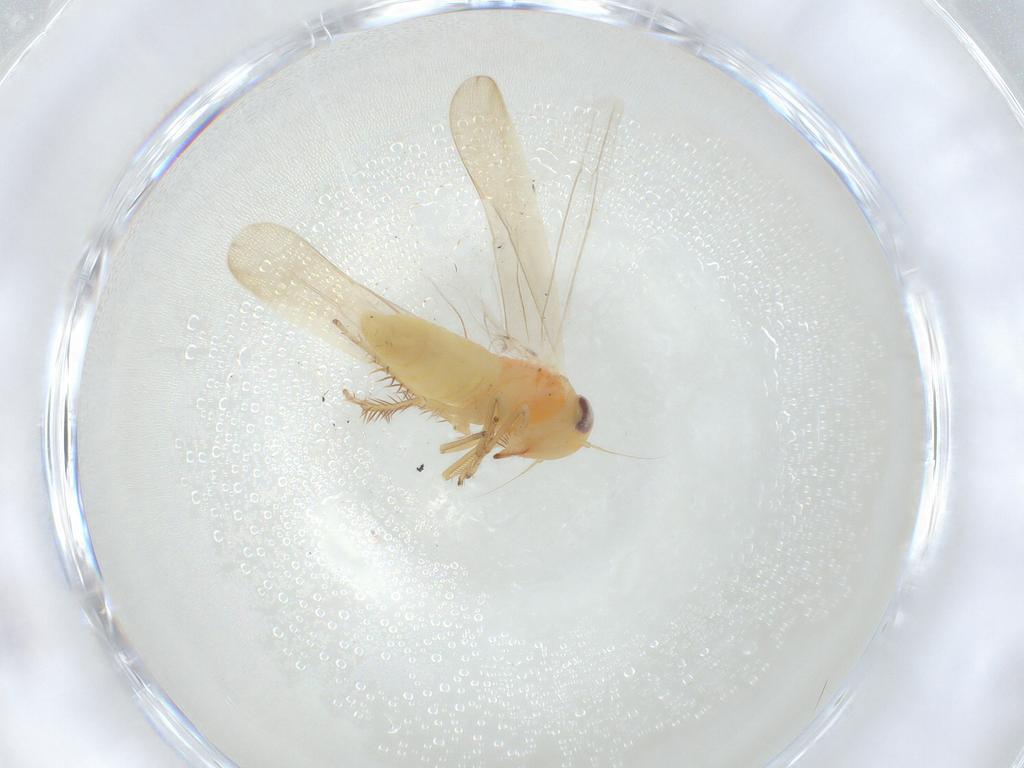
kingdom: Animalia
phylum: Arthropoda
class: Insecta
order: Hemiptera
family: Cicadellidae
